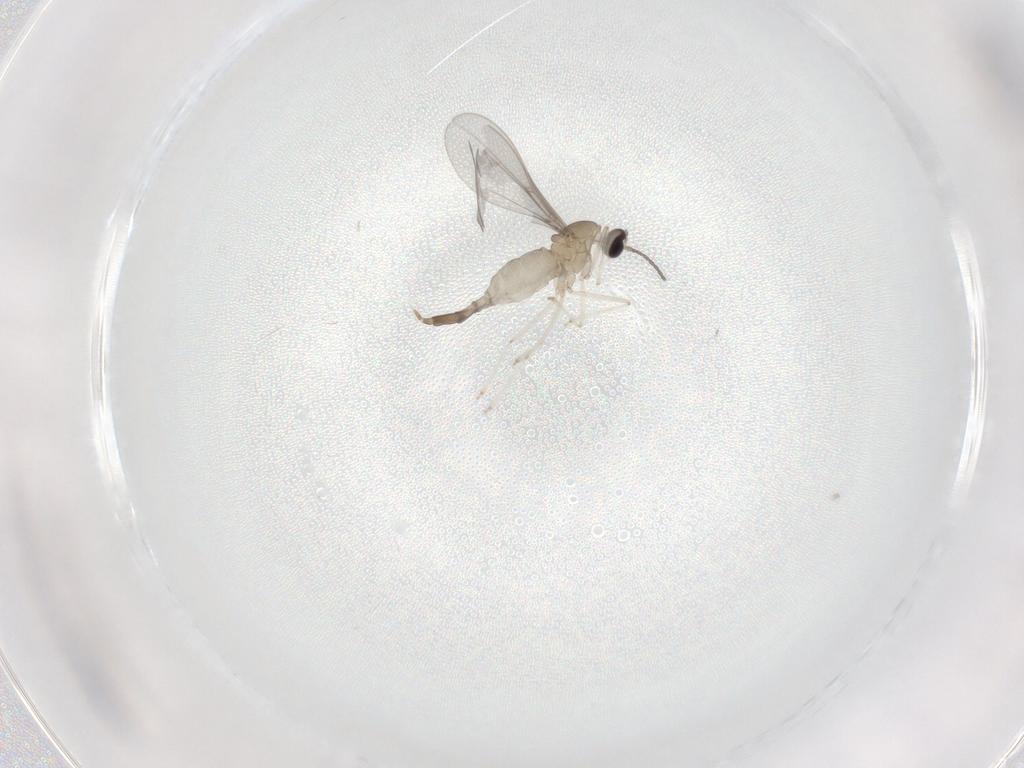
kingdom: Animalia
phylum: Arthropoda
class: Insecta
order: Diptera
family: Cecidomyiidae
